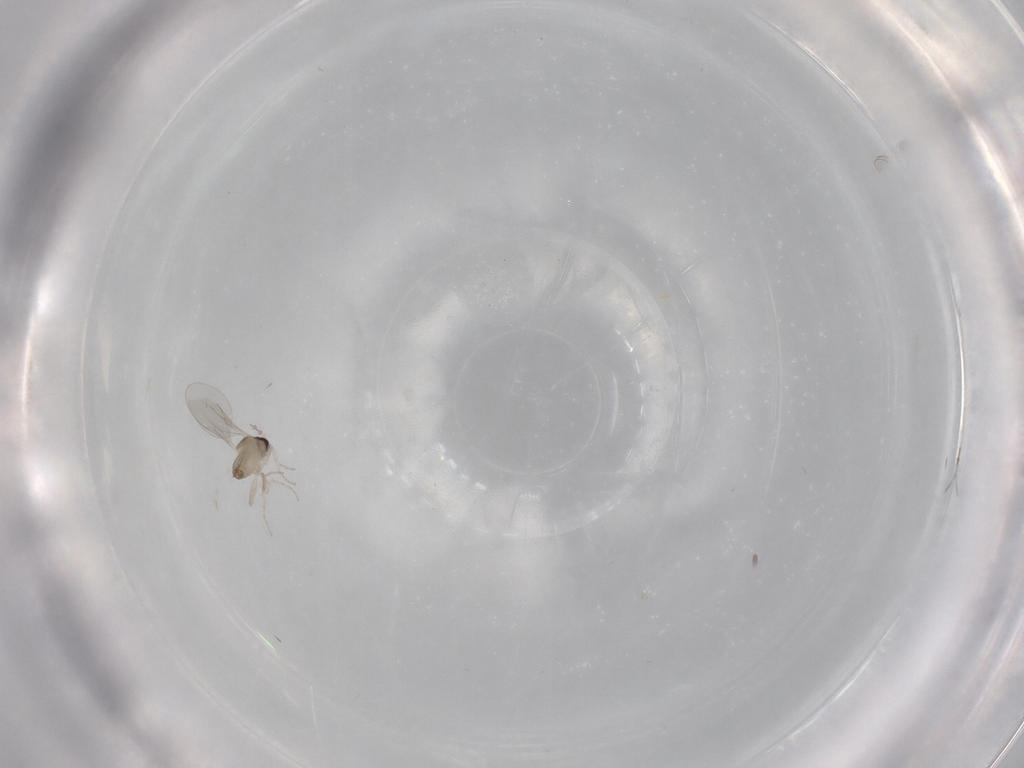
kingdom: Animalia
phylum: Arthropoda
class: Insecta
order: Diptera
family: Cecidomyiidae
